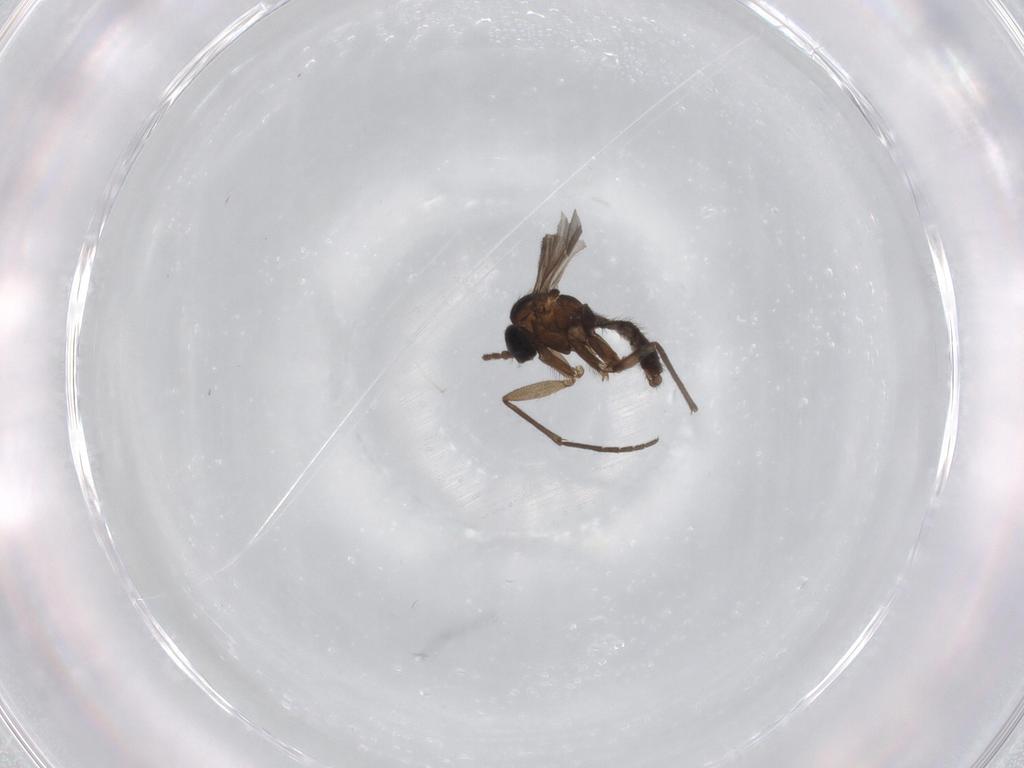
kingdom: Animalia
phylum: Arthropoda
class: Insecta
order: Diptera
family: Sciaridae
